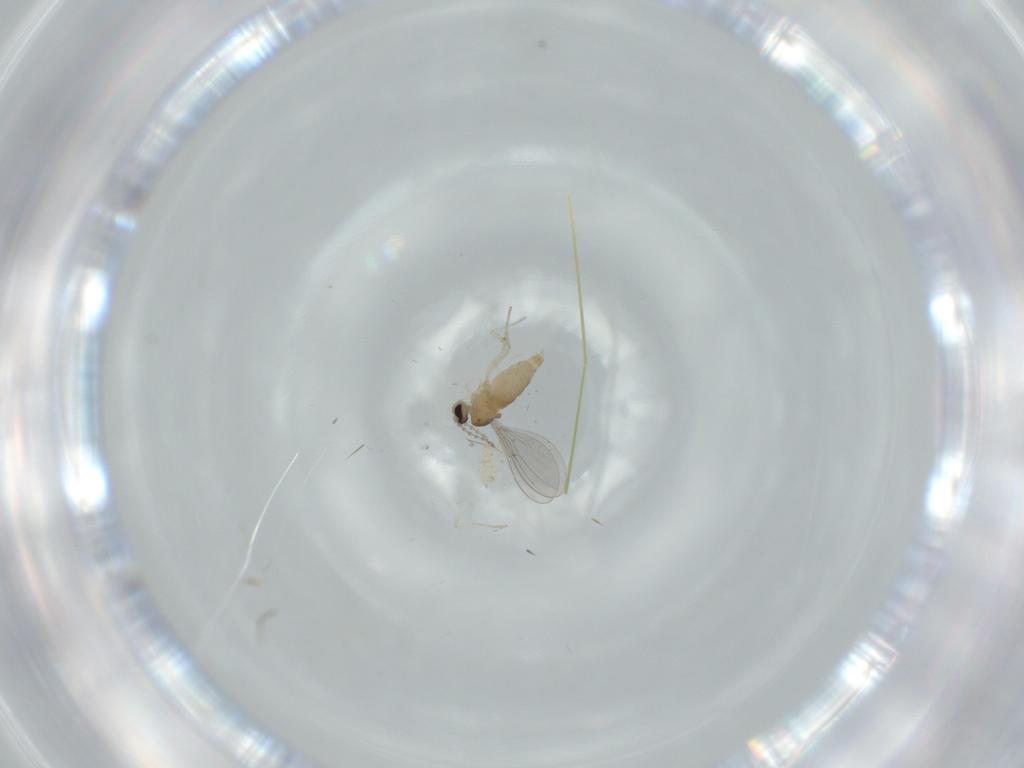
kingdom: Animalia
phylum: Arthropoda
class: Insecta
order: Diptera
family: Cecidomyiidae
